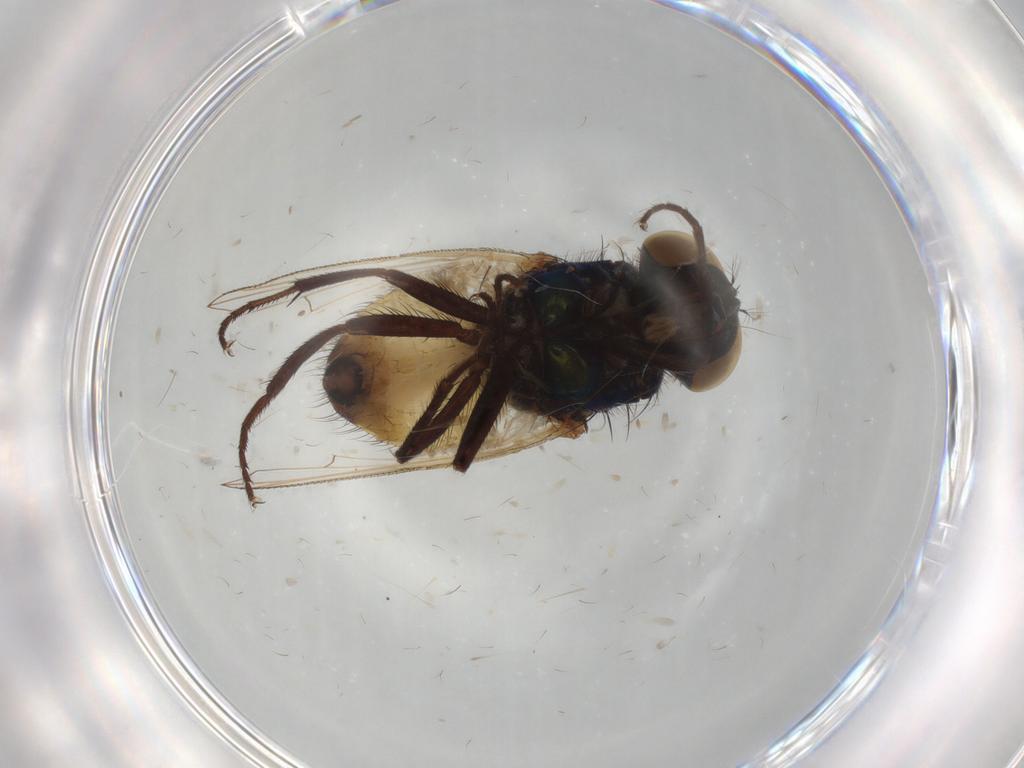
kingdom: Animalia
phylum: Arthropoda
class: Insecta
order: Diptera
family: Muscidae
